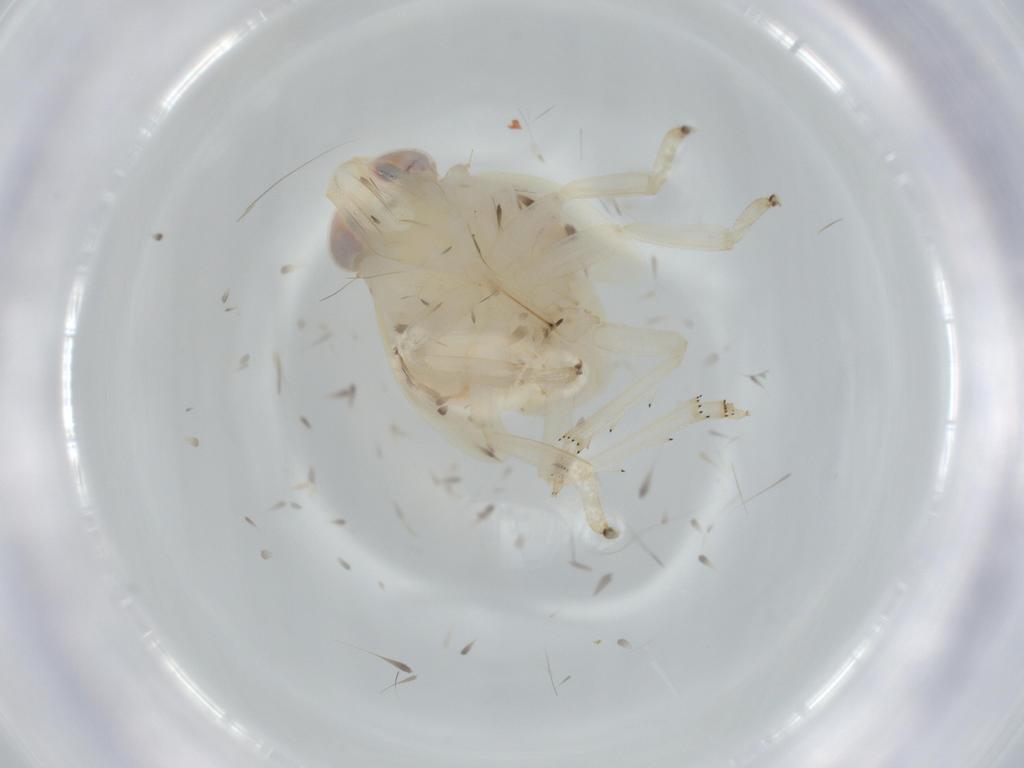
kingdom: Animalia
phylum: Arthropoda
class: Insecta
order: Hemiptera
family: Nogodinidae
